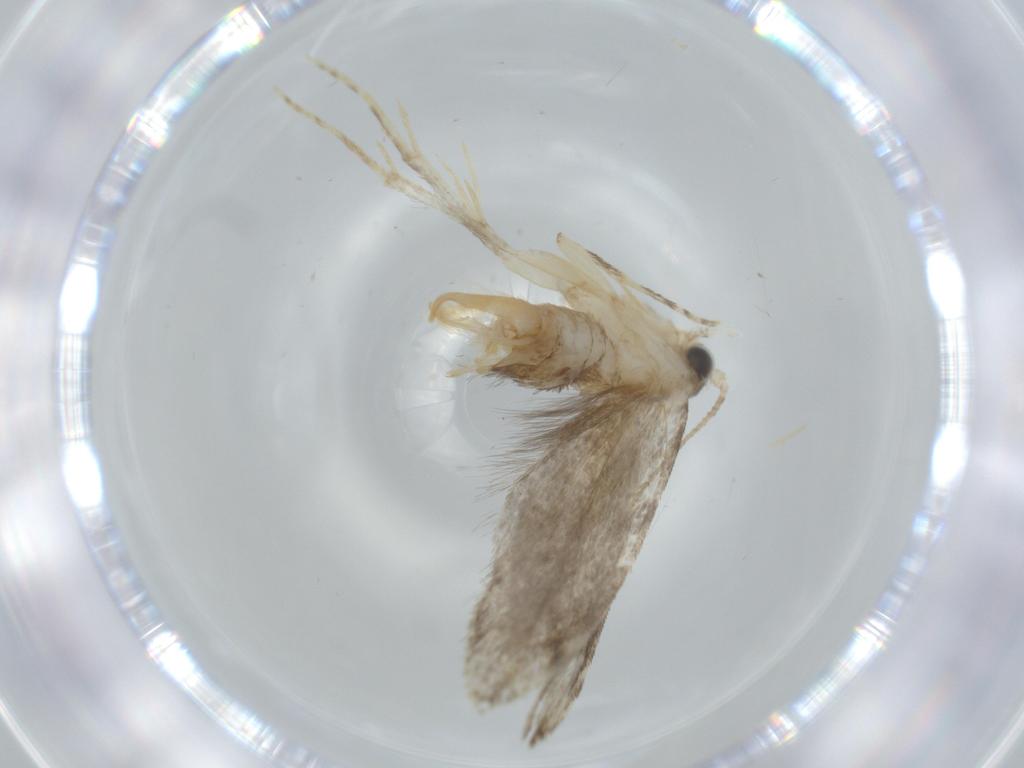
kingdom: Animalia
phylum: Arthropoda
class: Insecta
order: Lepidoptera
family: Tineidae
